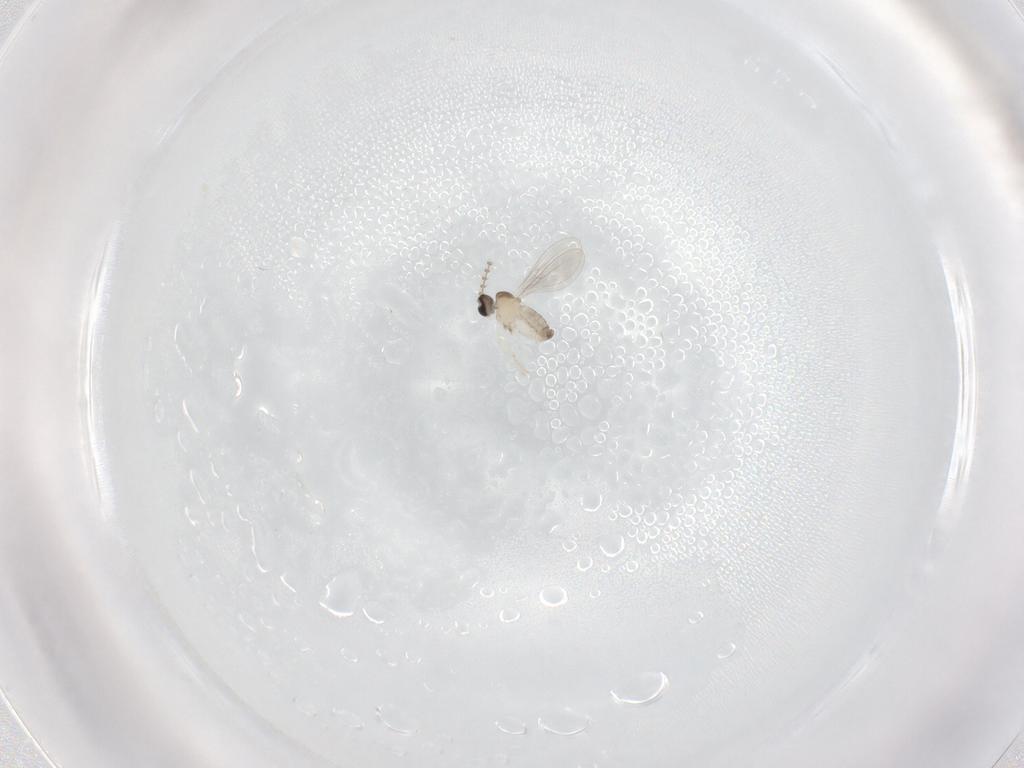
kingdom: Animalia
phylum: Arthropoda
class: Insecta
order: Diptera
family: Cecidomyiidae
